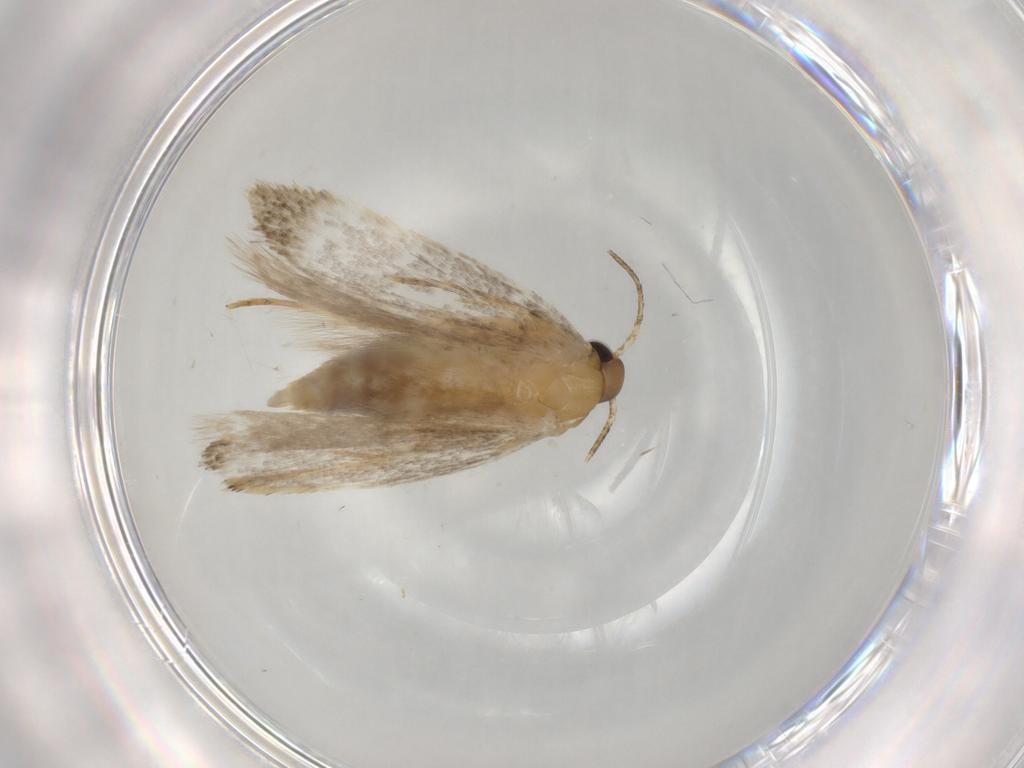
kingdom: Animalia
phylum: Arthropoda
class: Insecta
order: Lepidoptera
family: Autostichidae
